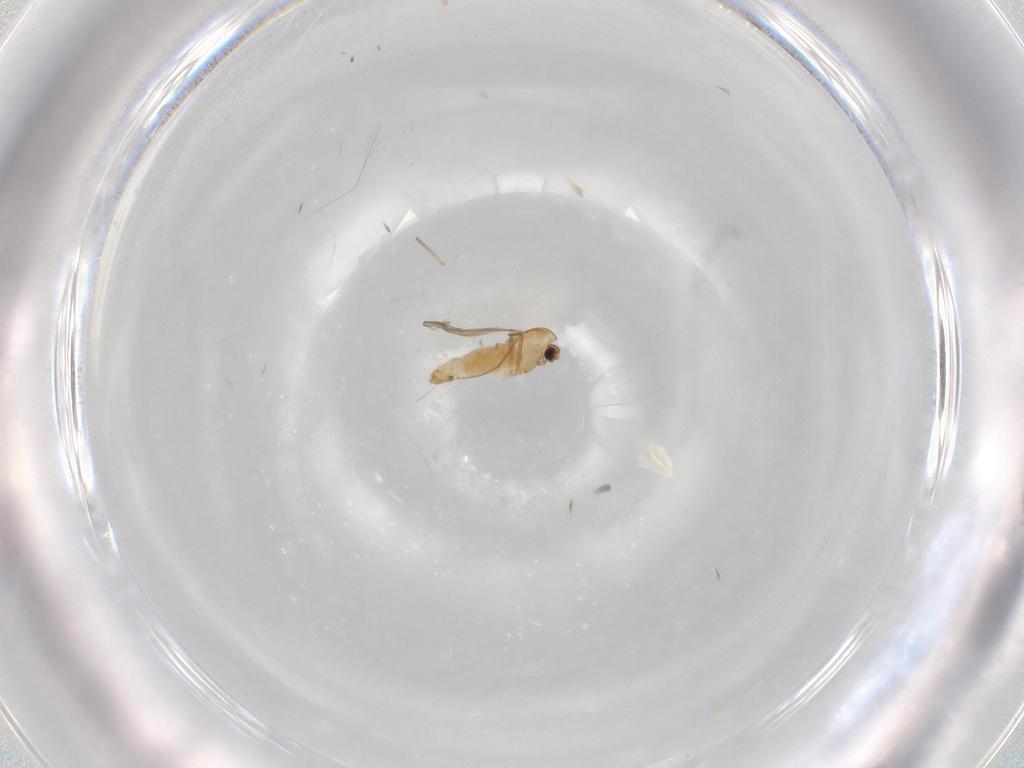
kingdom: Animalia
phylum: Arthropoda
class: Insecta
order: Diptera
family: Chironomidae
